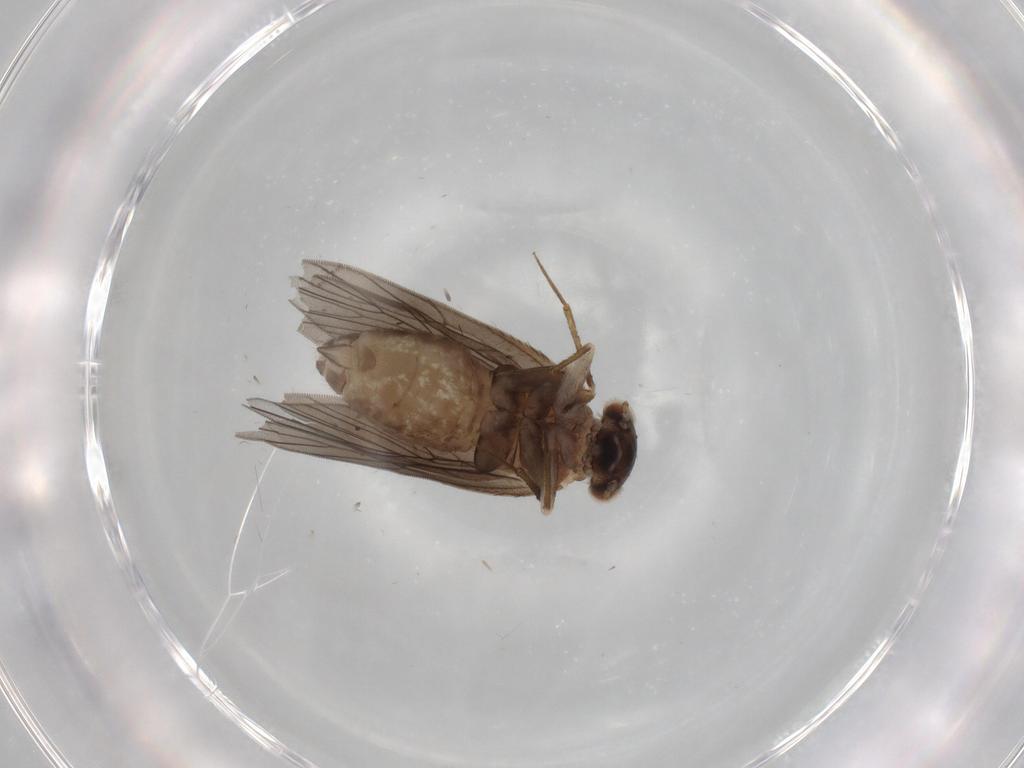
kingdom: Animalia
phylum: Arthropoda
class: Insecta
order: Psocodea
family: Lepidopsocidae
